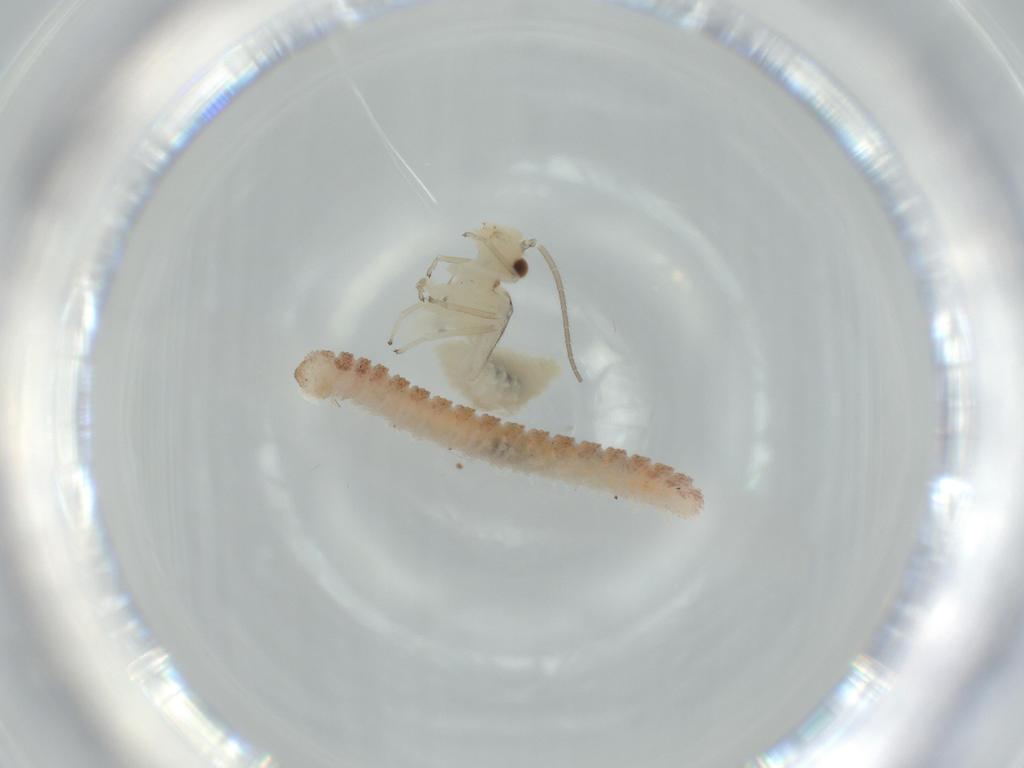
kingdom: Animalia
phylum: Arthropoda
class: Insecta
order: Psocodea
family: Caeciliusidae
